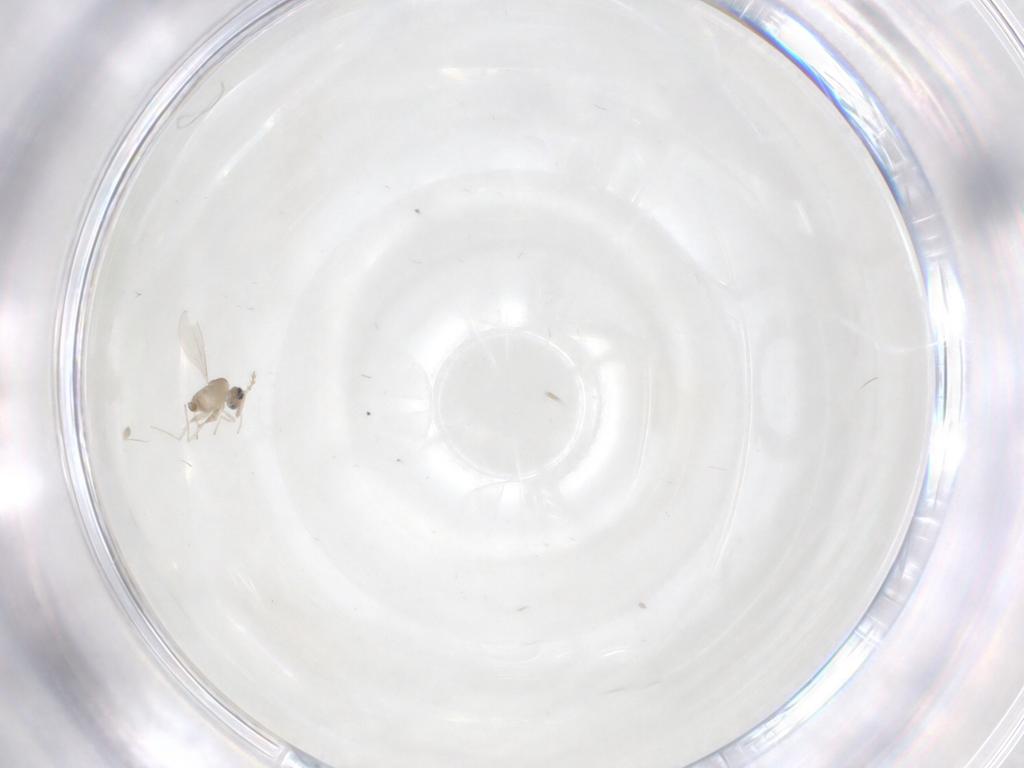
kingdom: Animalia
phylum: Arthropoda
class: Insecta
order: Diptera
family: Cecidomyiidae
